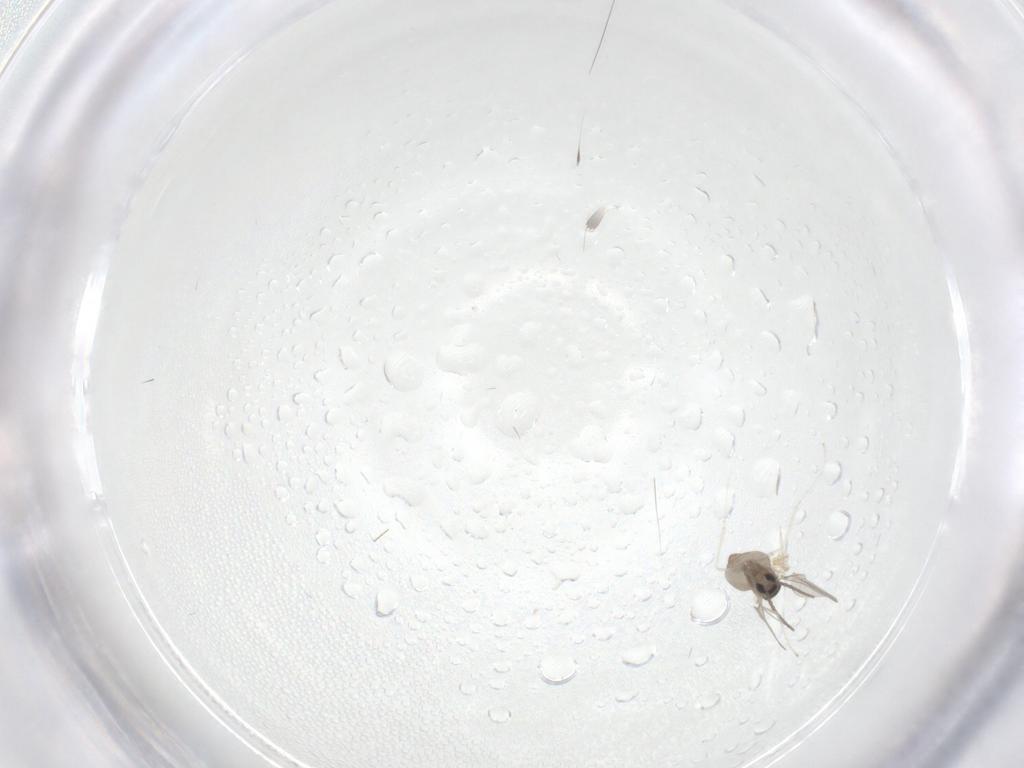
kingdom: Animalia
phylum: Arthropoda
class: Insecta
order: Diptera
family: Cecidomyiidae
